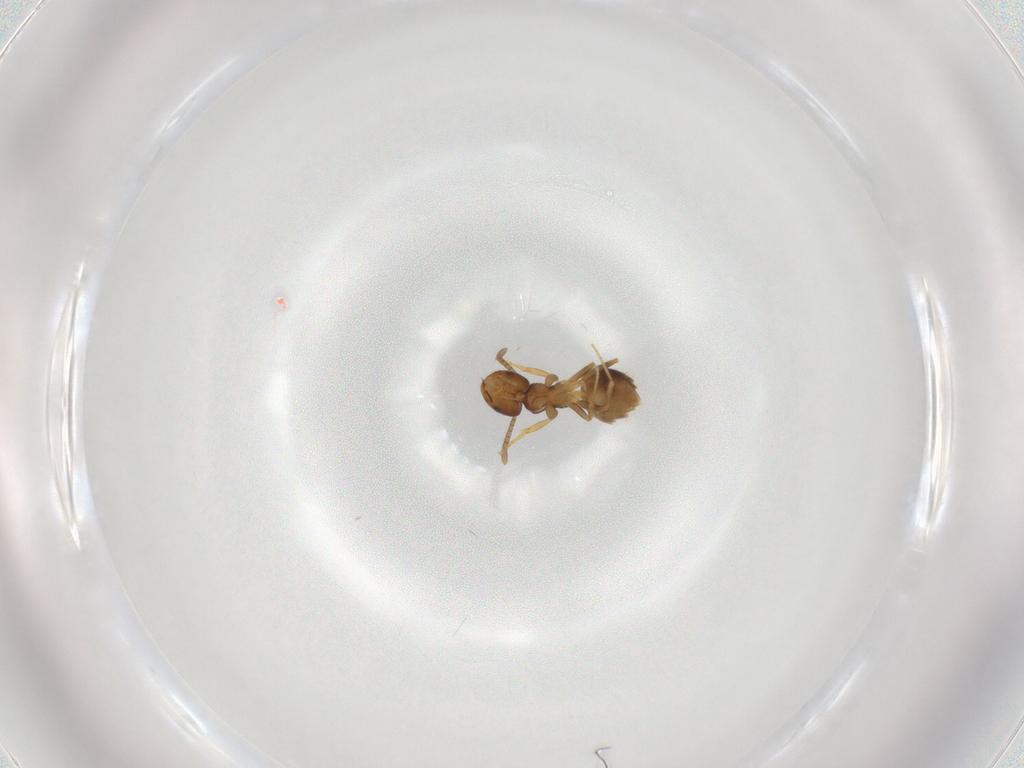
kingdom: Animalia
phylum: Arthropoda
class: Insecta
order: Hymenoptera
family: Formicidae
